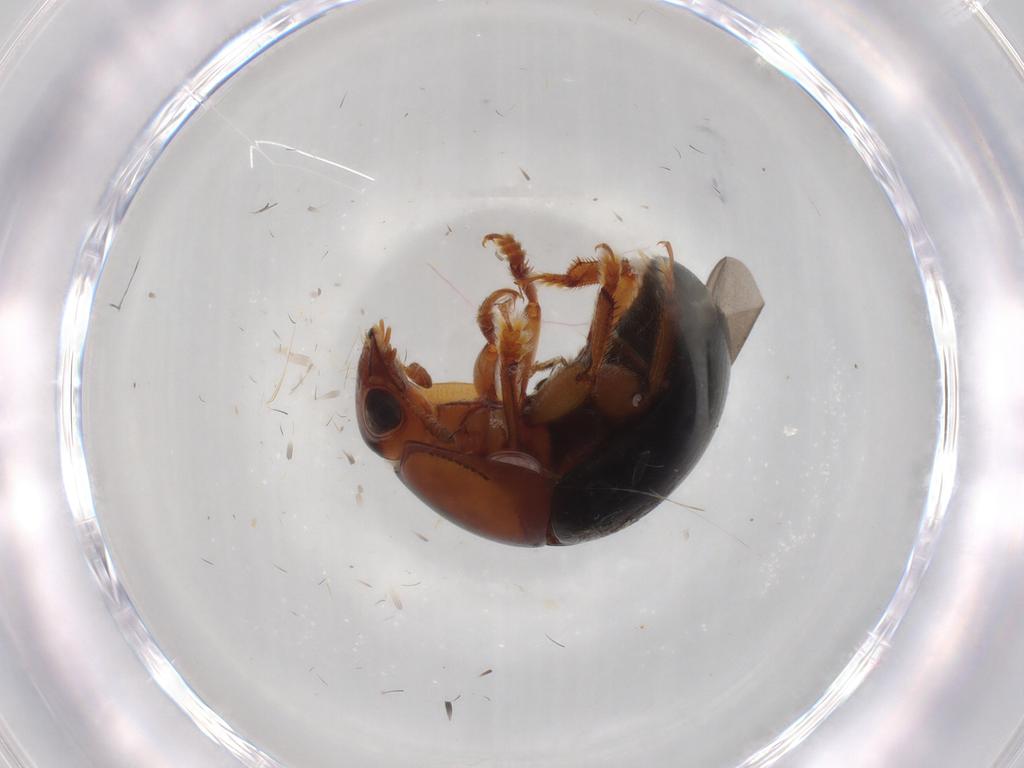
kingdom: Animalia
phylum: Arthropoda
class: Insecta
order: Coleoptera
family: Nitidulidae
